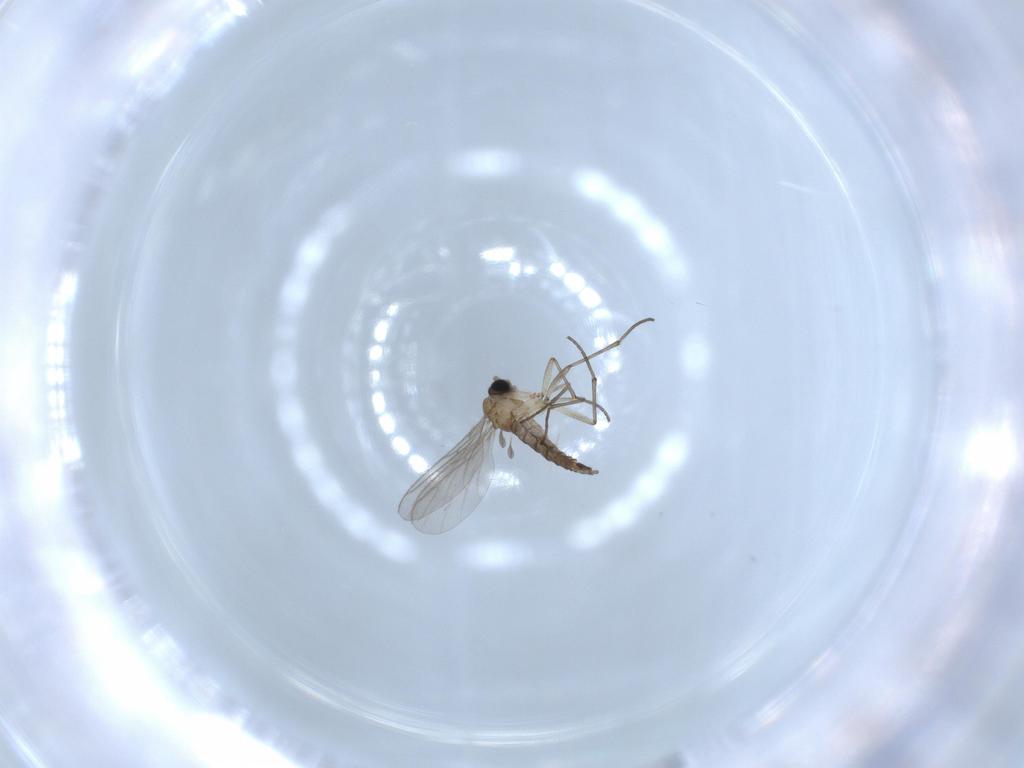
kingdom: Animalia
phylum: Arthropoda
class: Insecta
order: Diptera
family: Sciaridae
